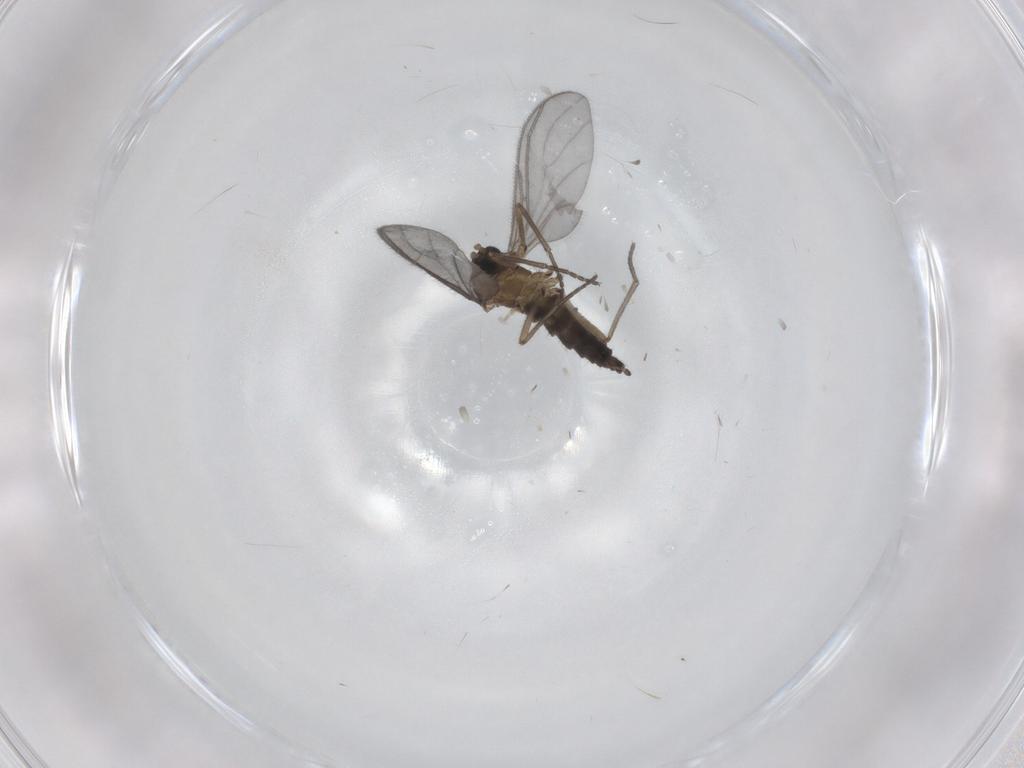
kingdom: Animalia
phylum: Arthropoda
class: Insecta
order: Diptera
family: Sciaridae
